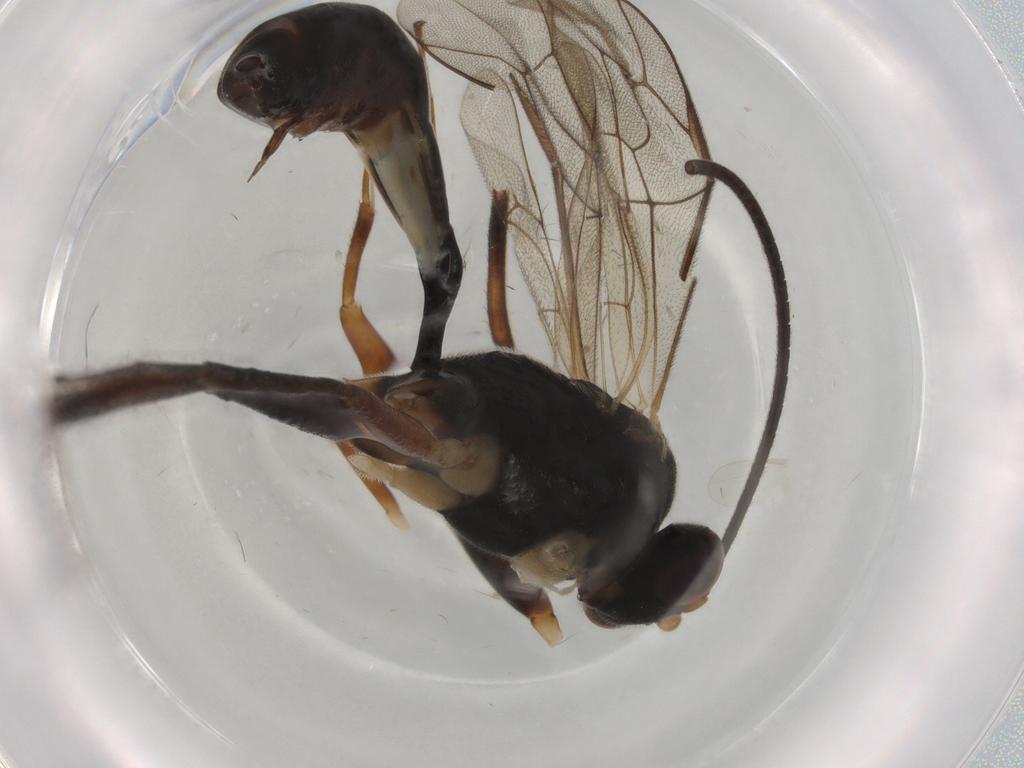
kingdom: Animalia
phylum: Arthropoda
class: Insecta
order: Hymenoptera
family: Ichneumonidae
